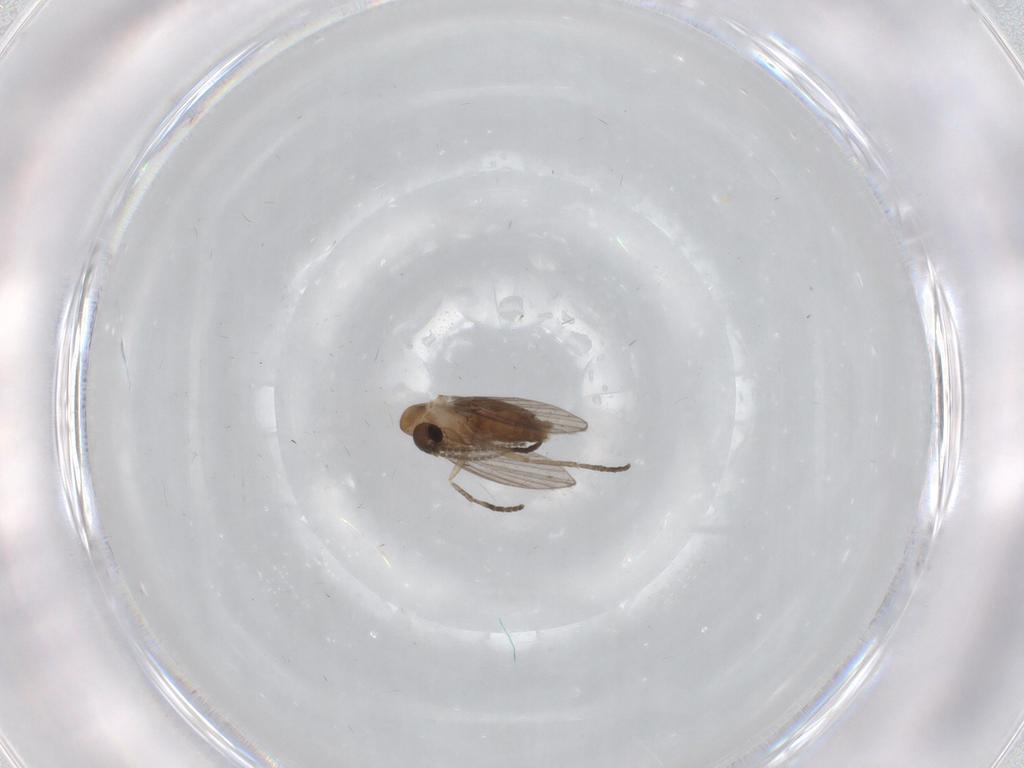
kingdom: Animalia
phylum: Arthropoda
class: Insecta
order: Diptera
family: Psychodidae
